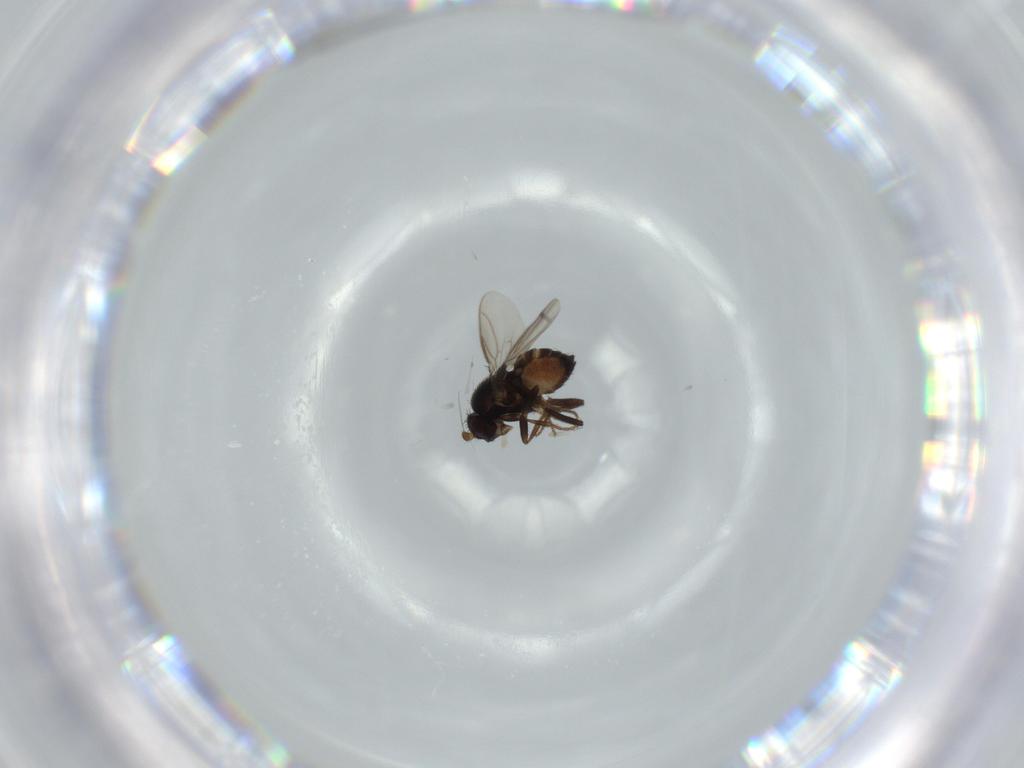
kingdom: Animalia
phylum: Arthropoda
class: Insecta
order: Diptera
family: Sphaeroceridae
